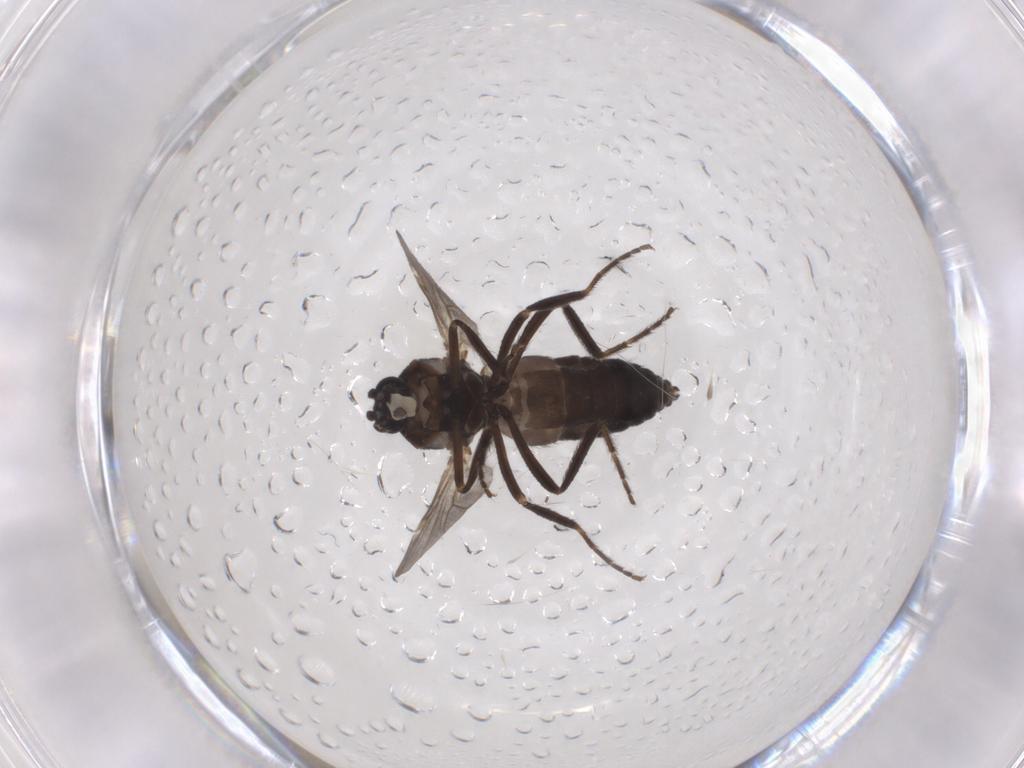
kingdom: Animalia
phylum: Arthropoda
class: Insecta
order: Diptera
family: Ceratopogonidae
